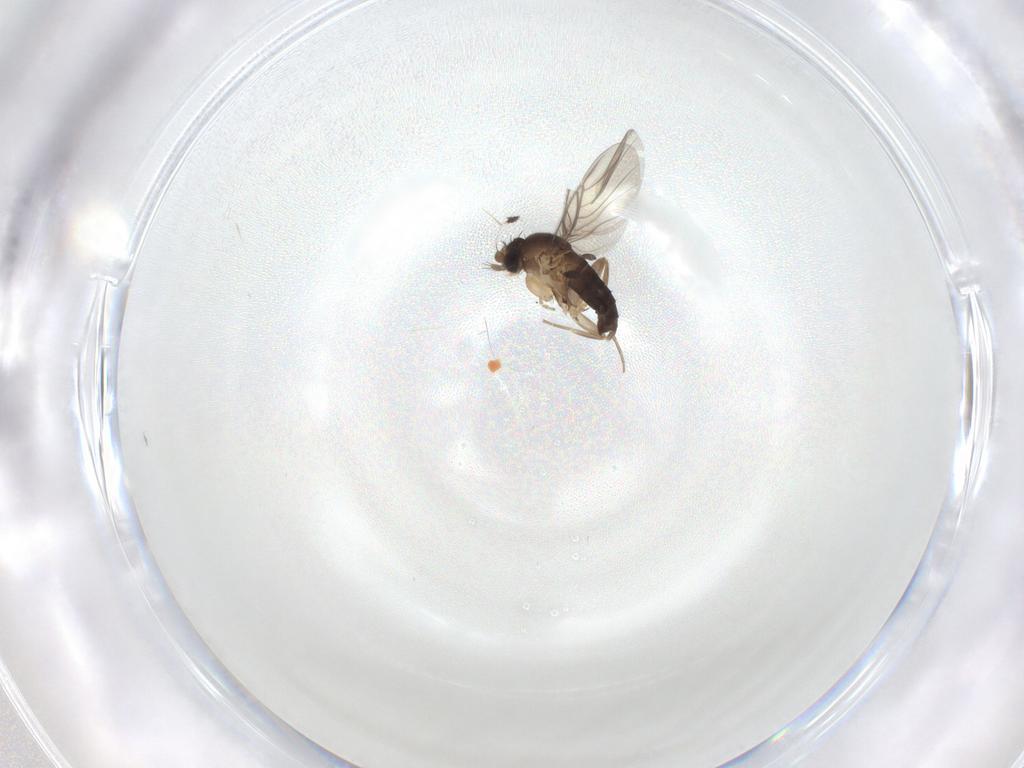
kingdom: Animalia
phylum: Arthropoda
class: Insecta
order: Diptera
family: Phoridae
